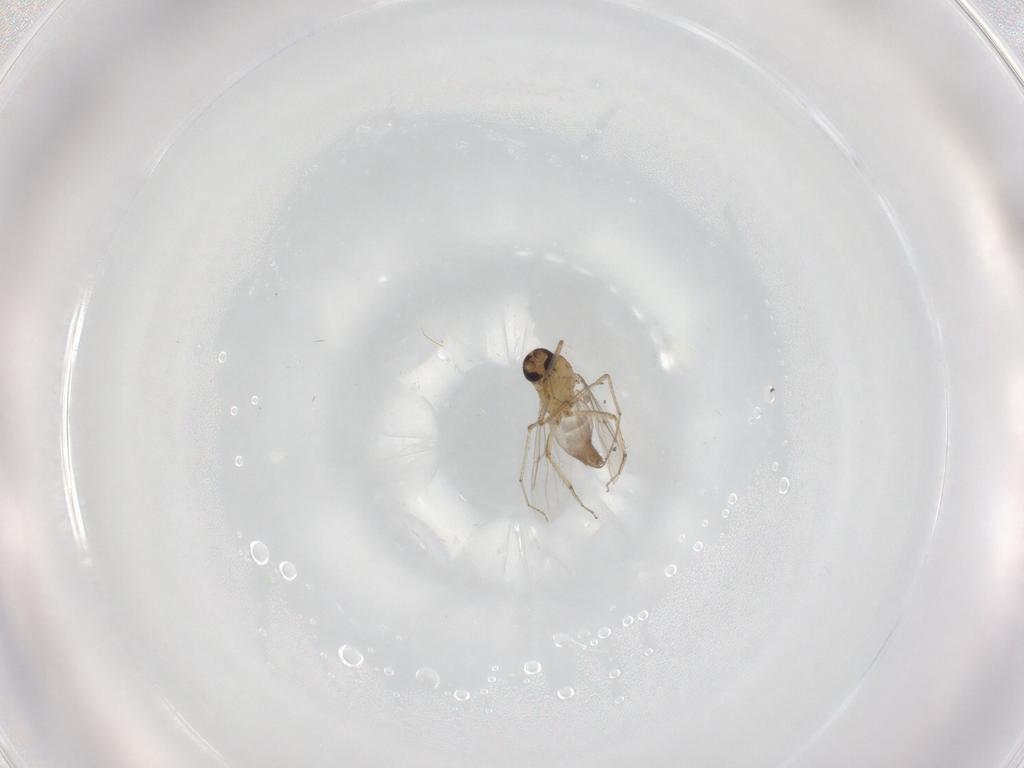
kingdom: Animalia
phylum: Arthropoda
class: Insecta
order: Diptera
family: Ceratopogonidae
